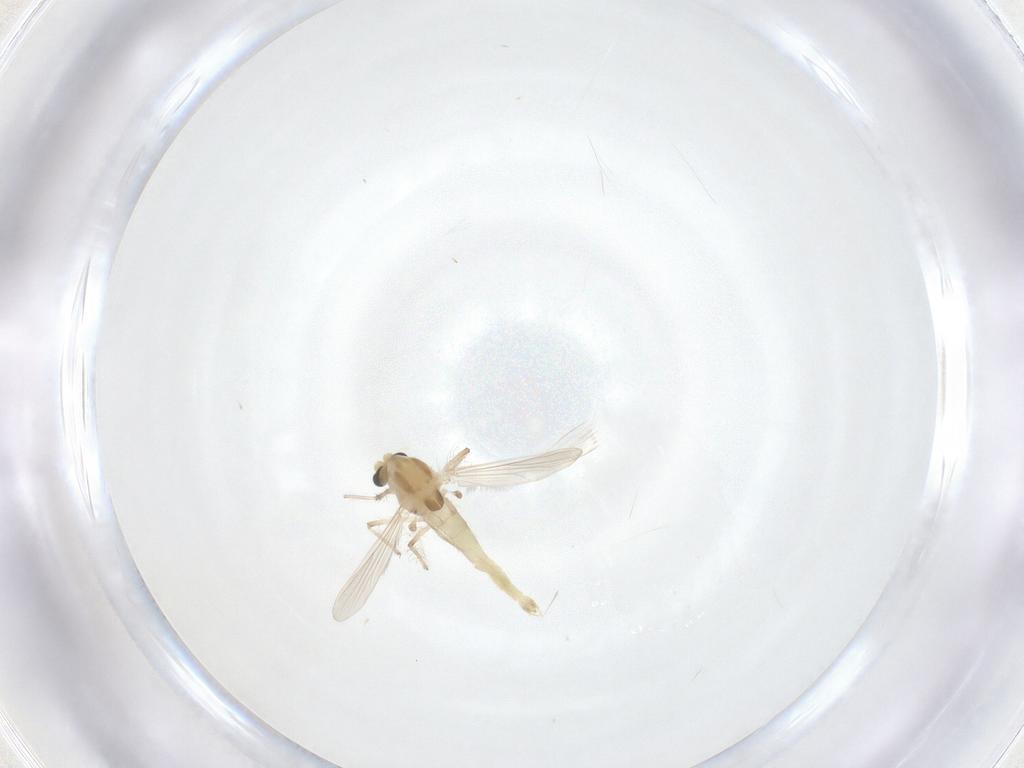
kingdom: Animalia
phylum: Arthropoda
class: Insecta
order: Diptera
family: Chironomidae
